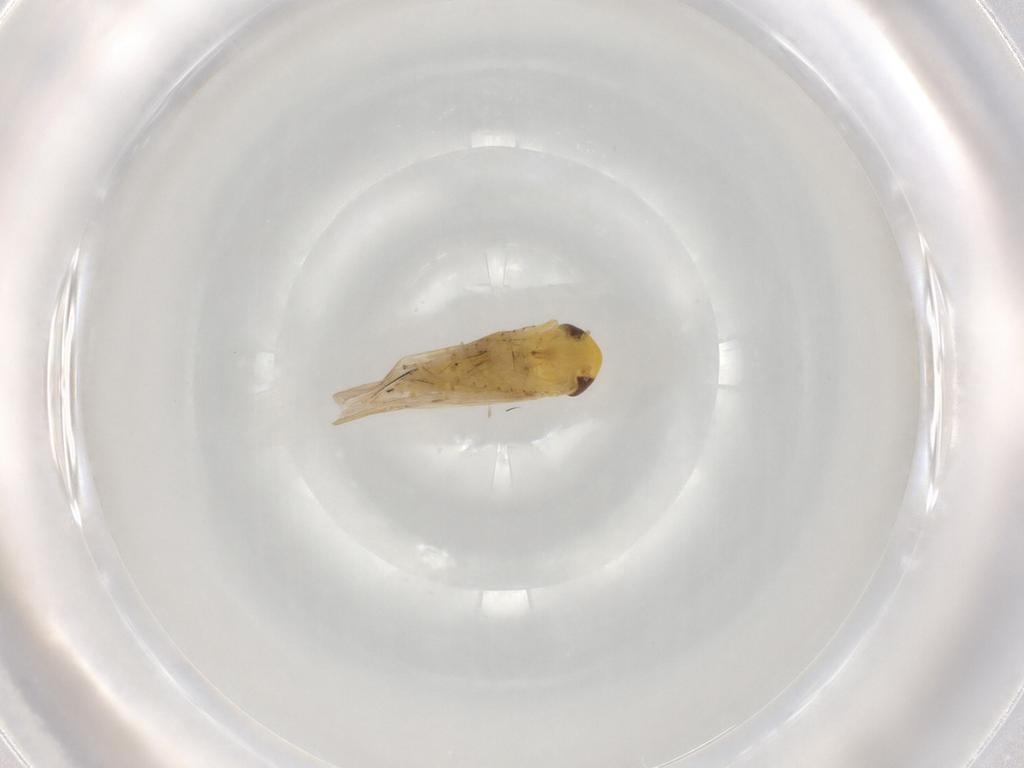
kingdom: Animalia
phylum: Arthropoda
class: Insecta
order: Hemiptera
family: Cicadellidae
